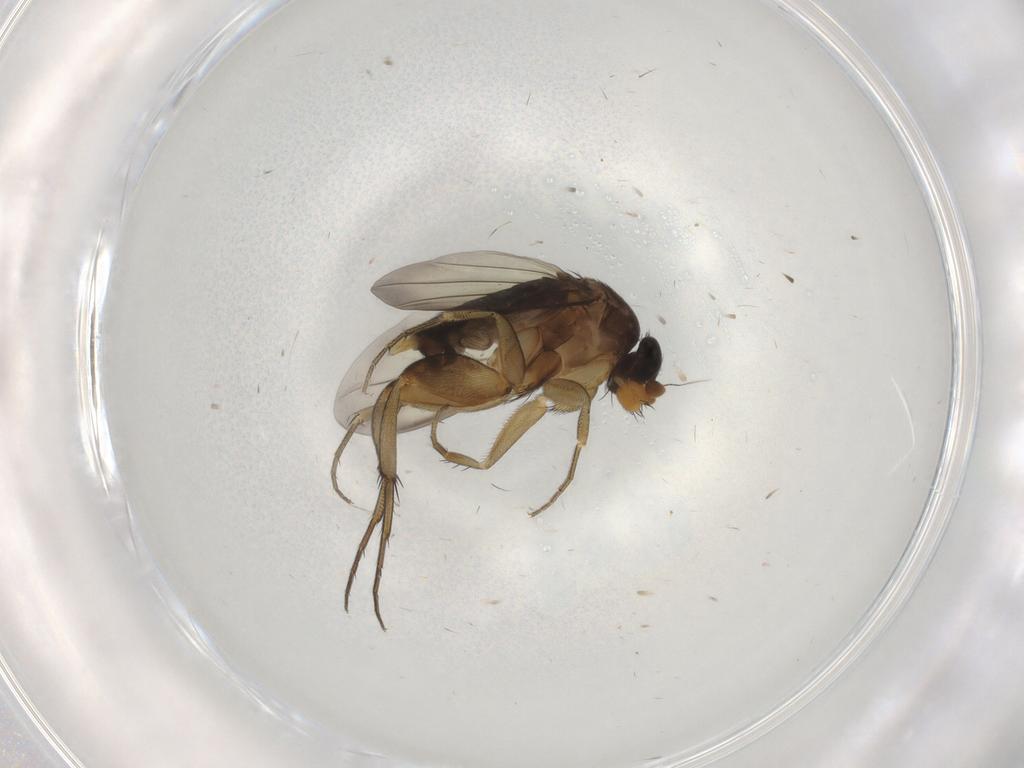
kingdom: Animalia
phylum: Arthropoda
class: Insecta
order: Diptera
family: Phoridae
